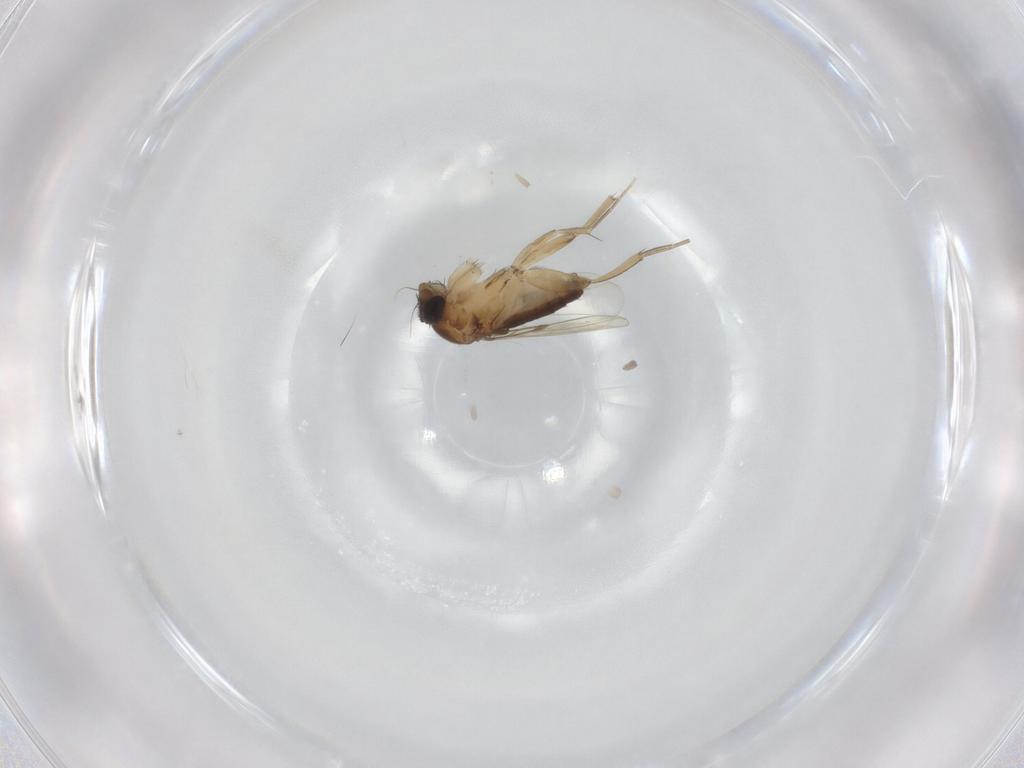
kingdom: Animalia
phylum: Arthropoda
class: Insecta
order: Diptera
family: Phoridae
